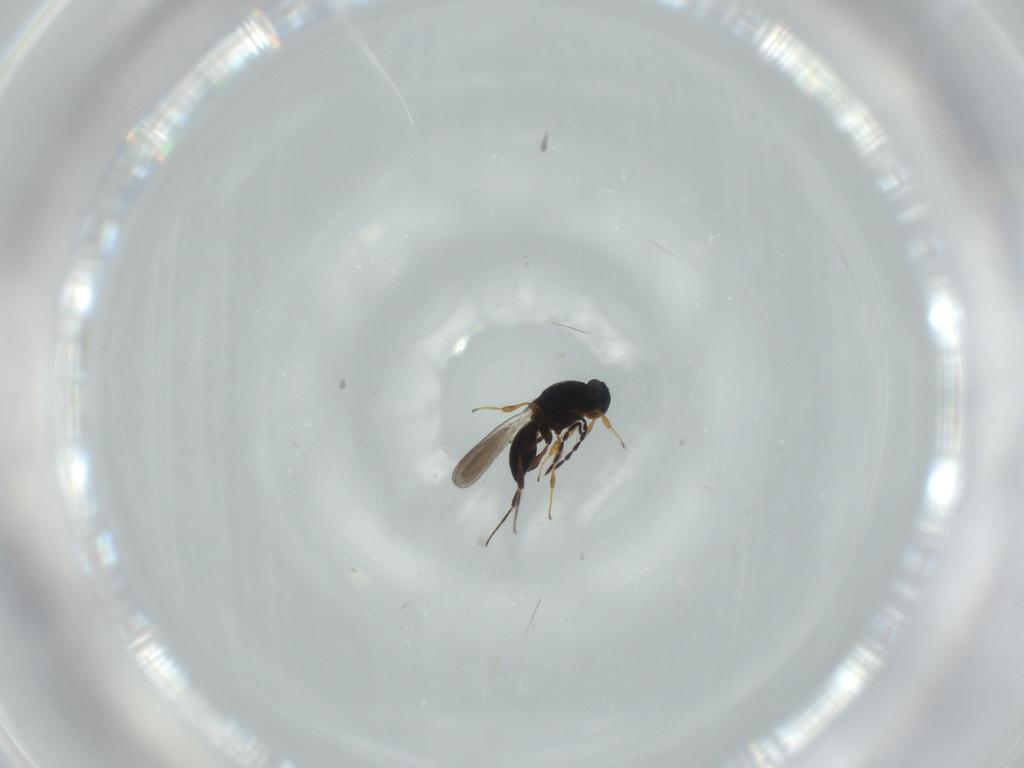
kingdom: Animalia
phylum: Arthropoda
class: Insecta
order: Hymenoptera
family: Platygastridae
